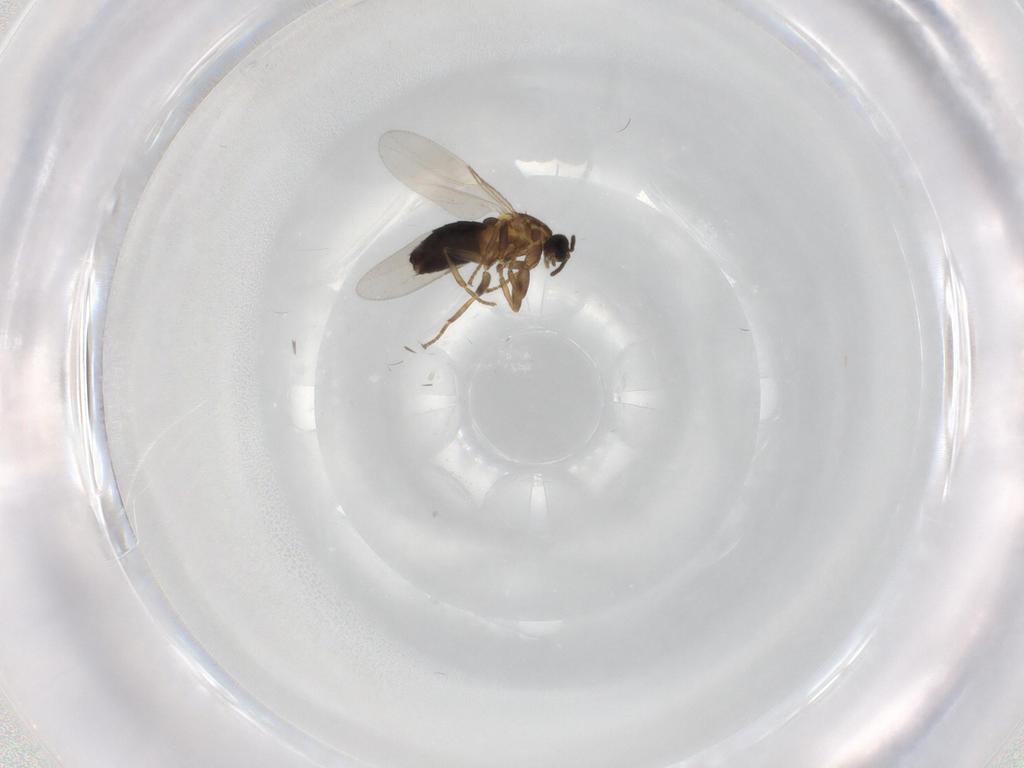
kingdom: Animalia
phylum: Arthropoda
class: Insecta
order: Diptera
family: Scatopsidae
